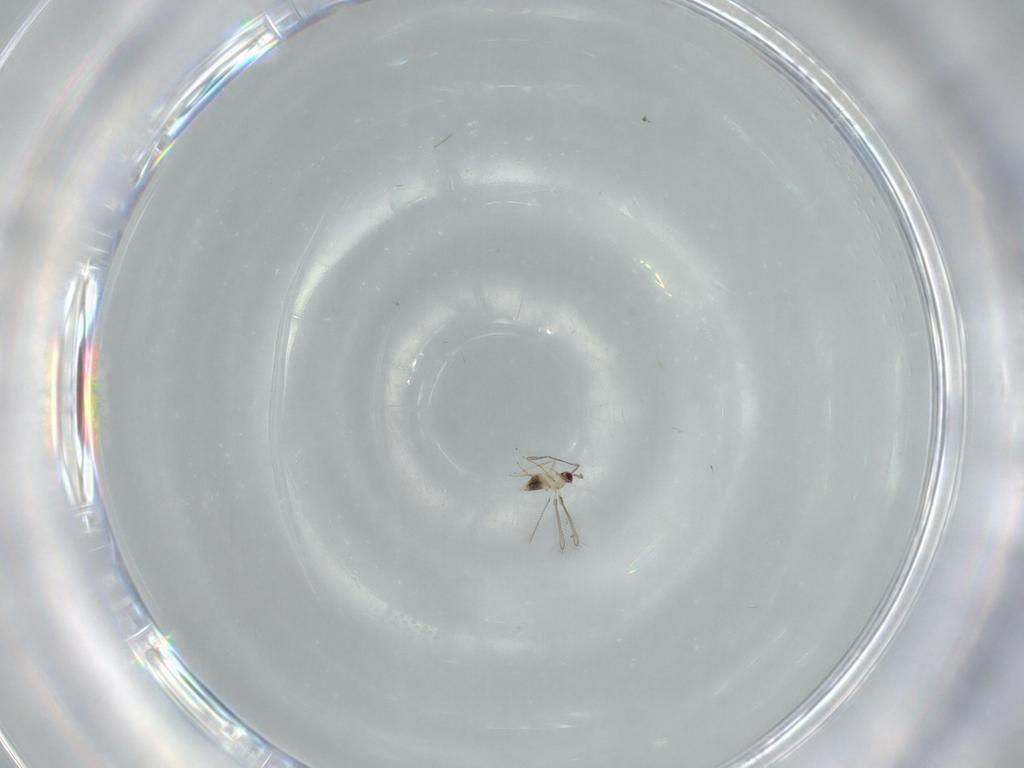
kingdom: Animalia
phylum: Arthropoda
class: Insecta
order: Hymenoptera
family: Mymaridae
